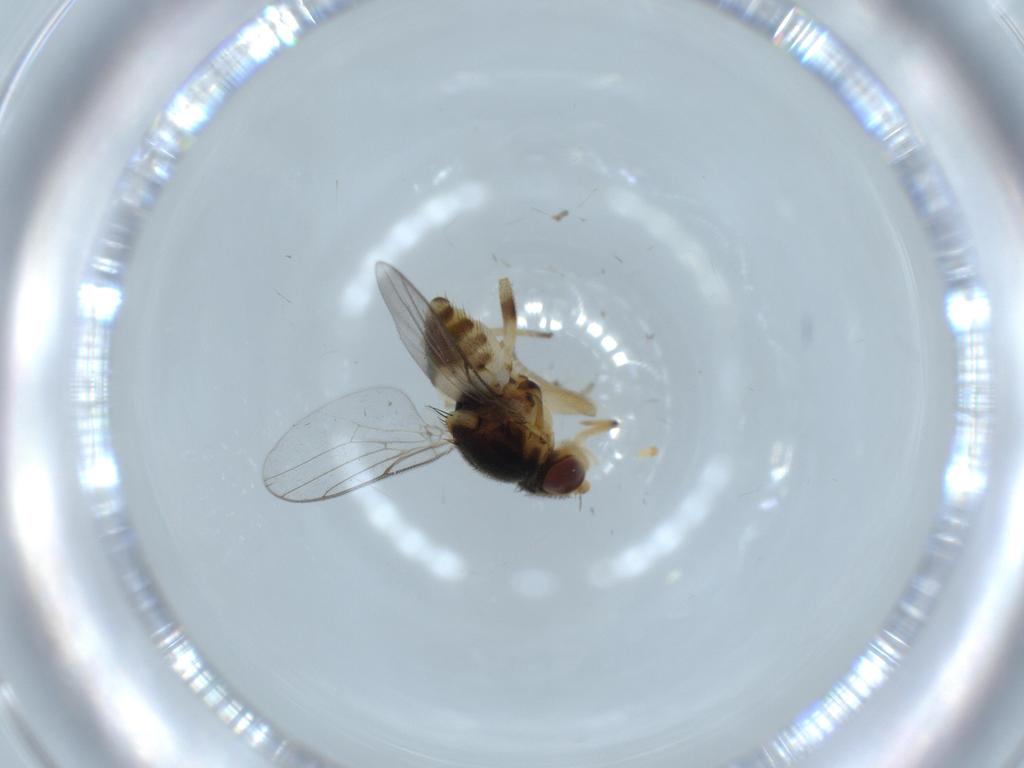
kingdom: Animalia
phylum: Arthropoda
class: Insecta
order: Diptera
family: Chloropidae
